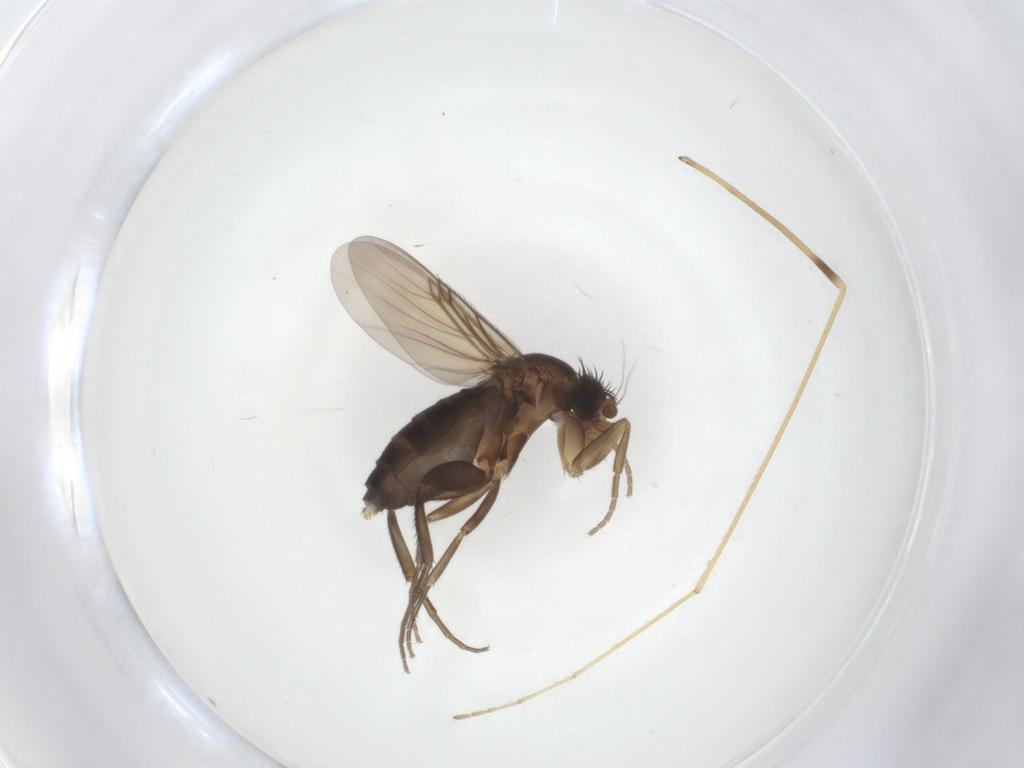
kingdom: Animalia
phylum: Arthropoda
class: Insecta
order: Diptera
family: Phoridae
